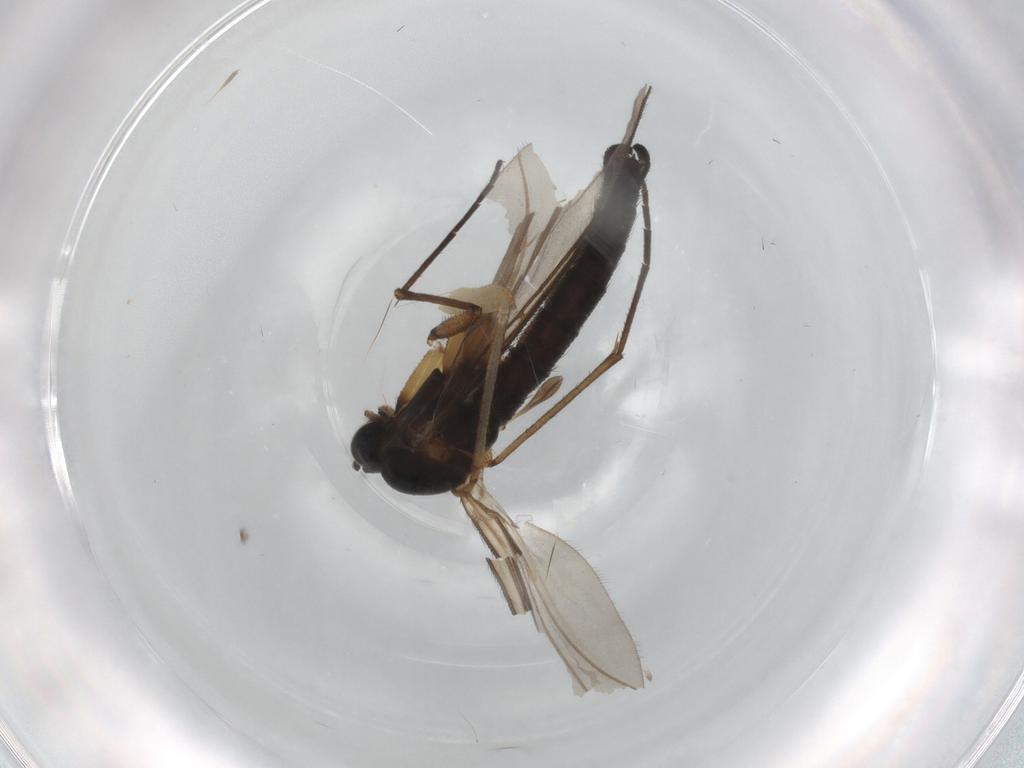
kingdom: Animalia
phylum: Arthropoda
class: Insecta
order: Diptera
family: Sciaridae
